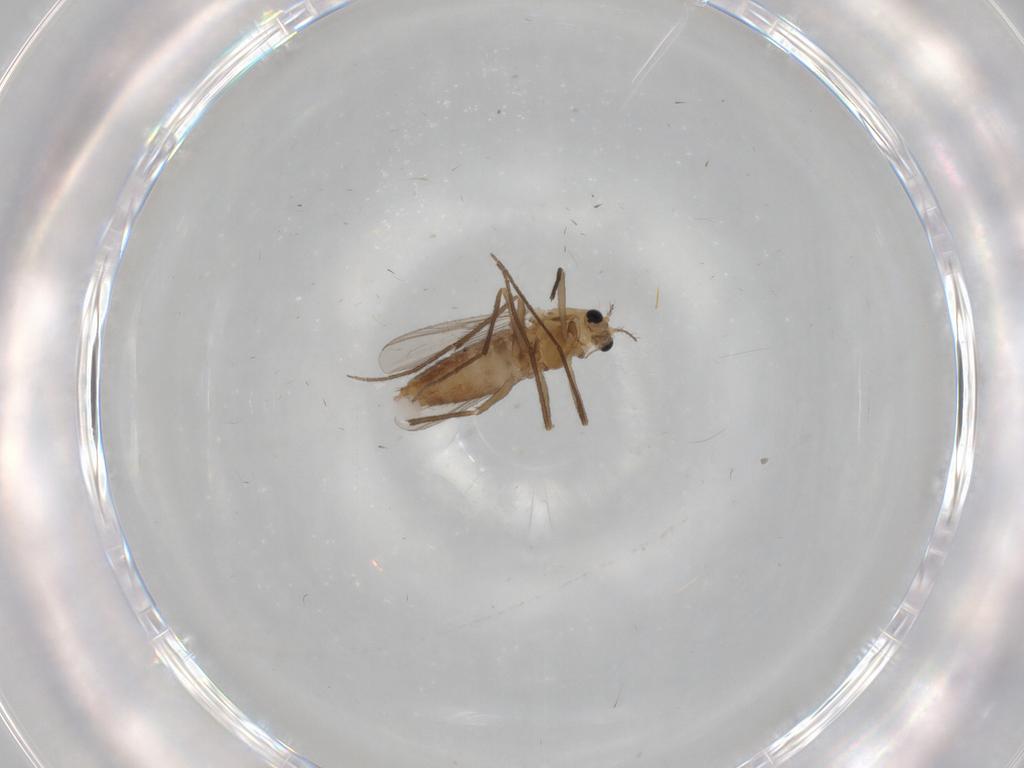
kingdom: Animalia
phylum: Arthropoda
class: Insecta
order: Diptera
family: Chironomidae
